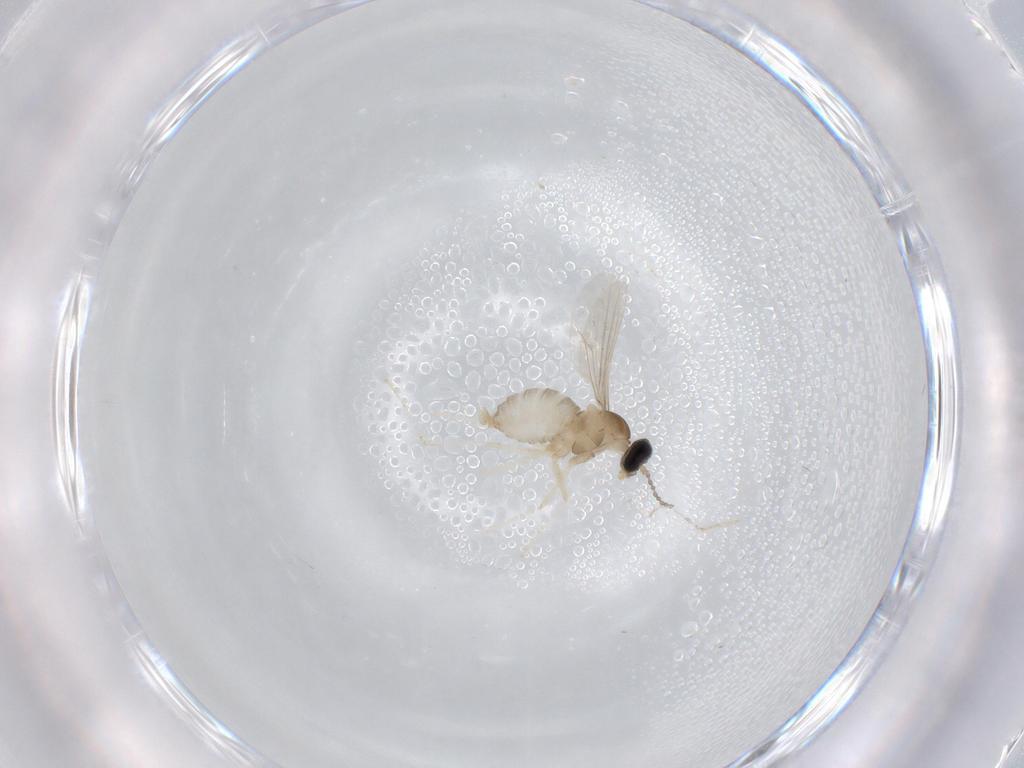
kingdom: Animalia
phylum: Arthropoda
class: Insecta
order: Diptera
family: Cecidomyiidae
